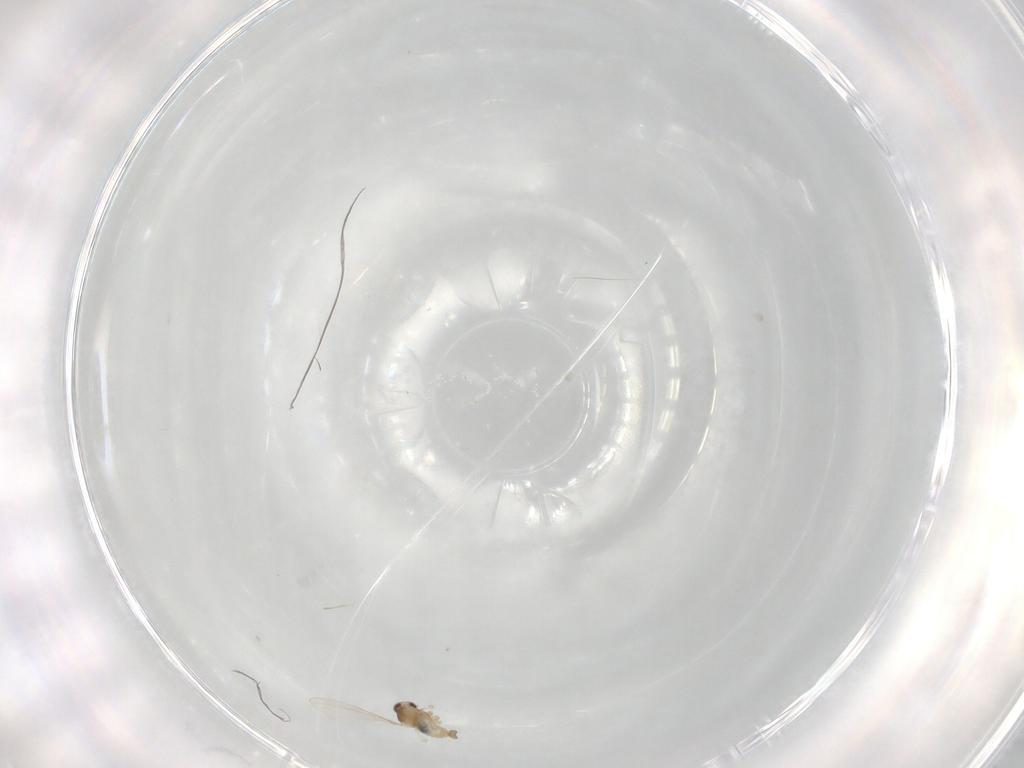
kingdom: Animalia
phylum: Arthropoda
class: Insecta
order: Diptera
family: Cecidomyiidae
